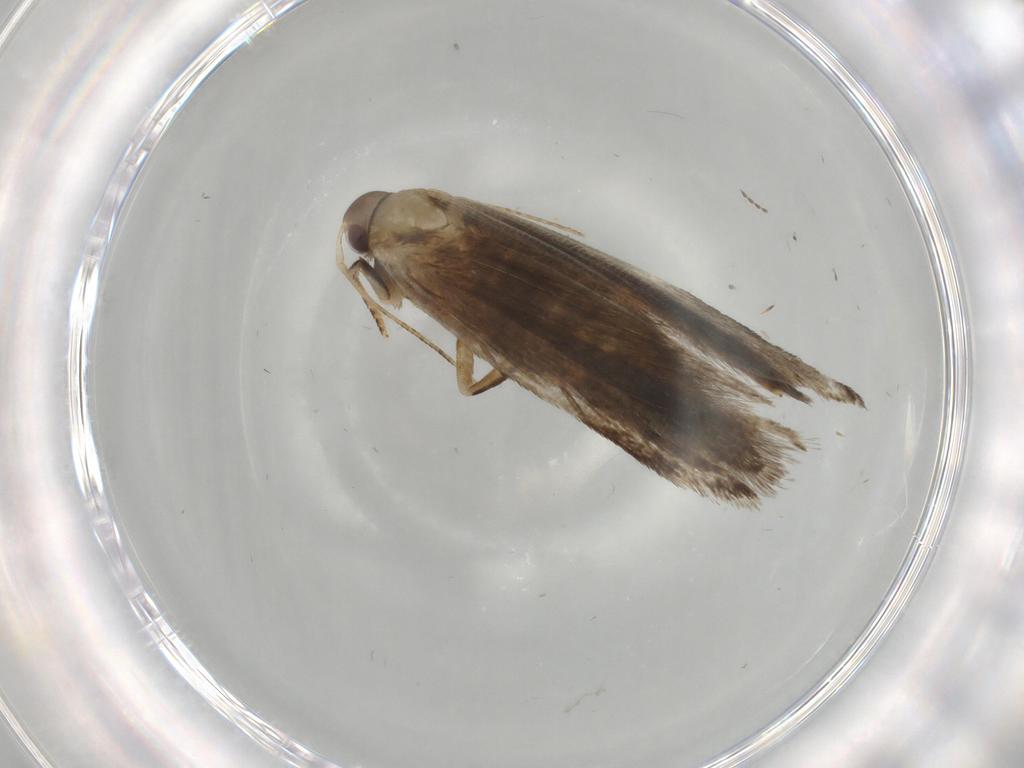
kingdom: Animalia
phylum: Arthropoda
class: Insecta
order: Lepidoptera
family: Gelechiidae
